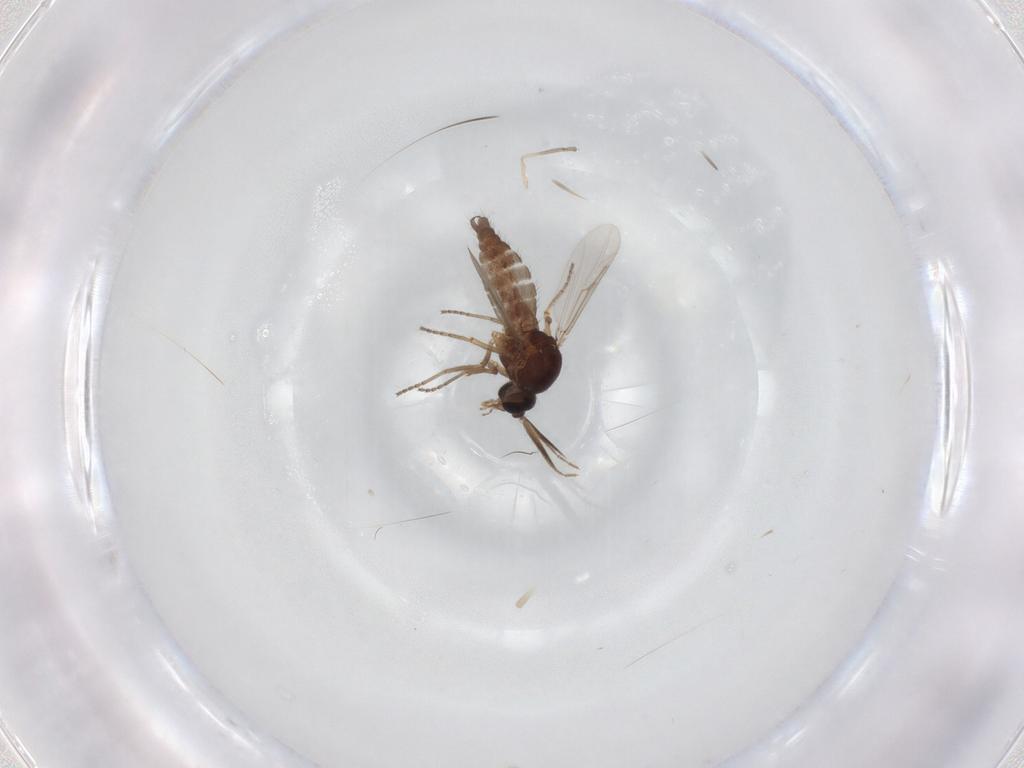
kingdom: Animalia
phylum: Arthropoda
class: Insecta
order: Diptera
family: Ceratopogonidae
